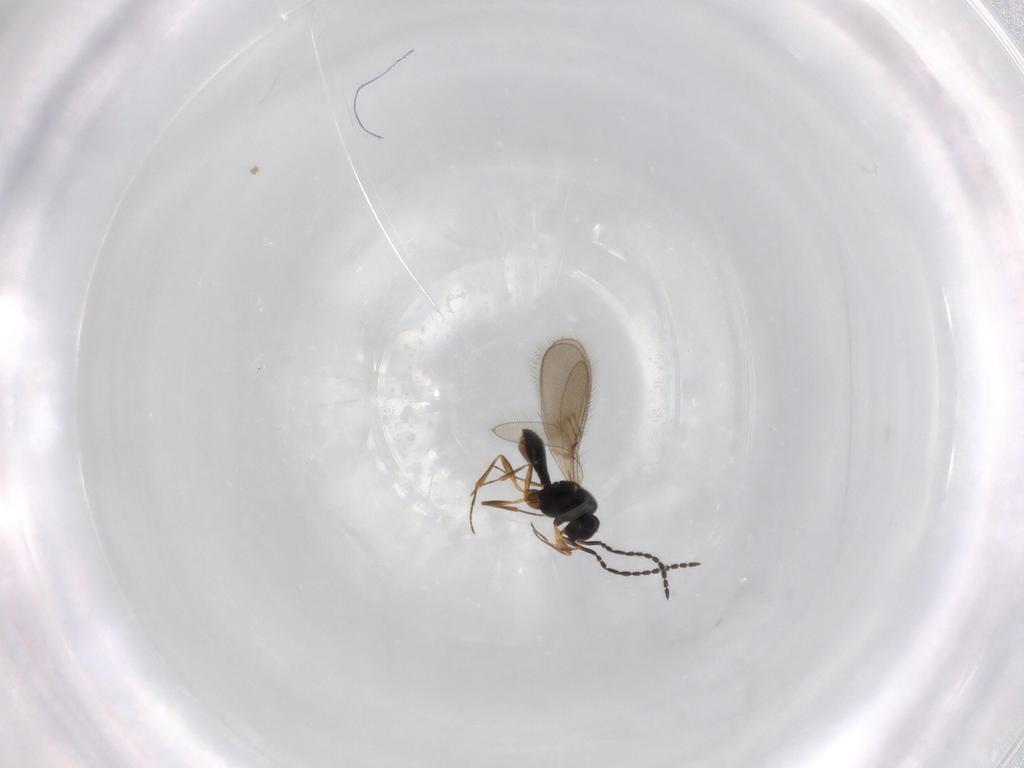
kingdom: Animalia
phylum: Arthropoda
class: Insecta
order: Hymenoptera
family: Scelionidae
